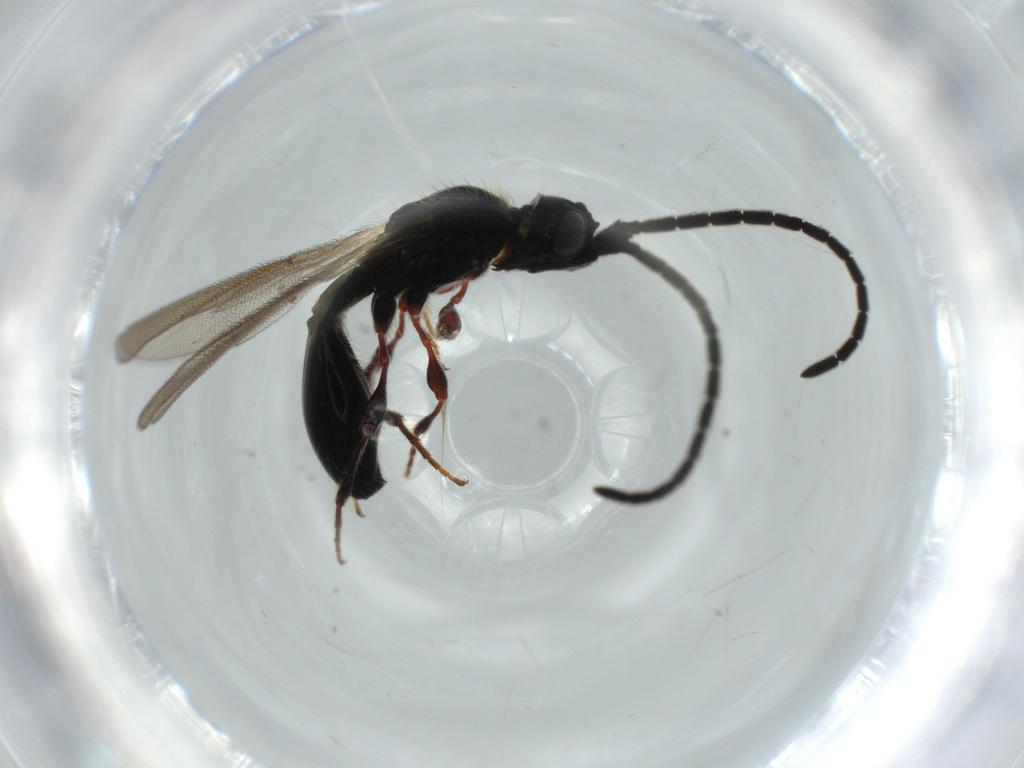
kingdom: Animalia
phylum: Arthropoda
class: Insecta
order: Hymenoptera
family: Diapriidae
